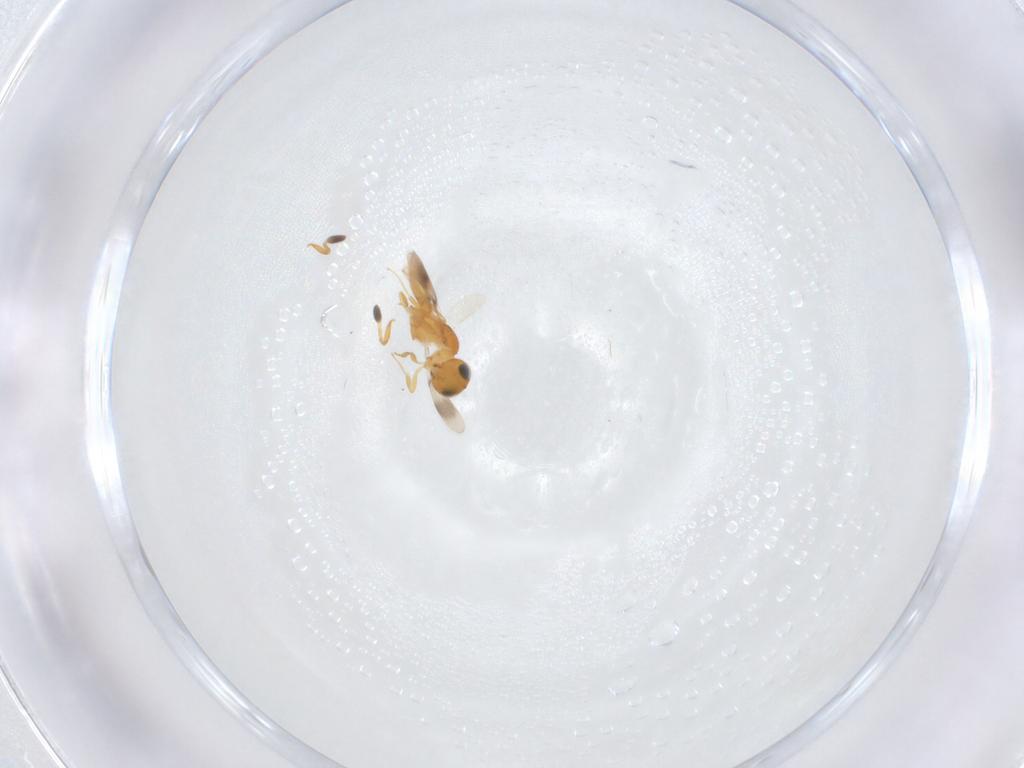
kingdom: Animalia
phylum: Arthropoda
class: Insecta
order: Hymenoptera
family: Scelionidae
